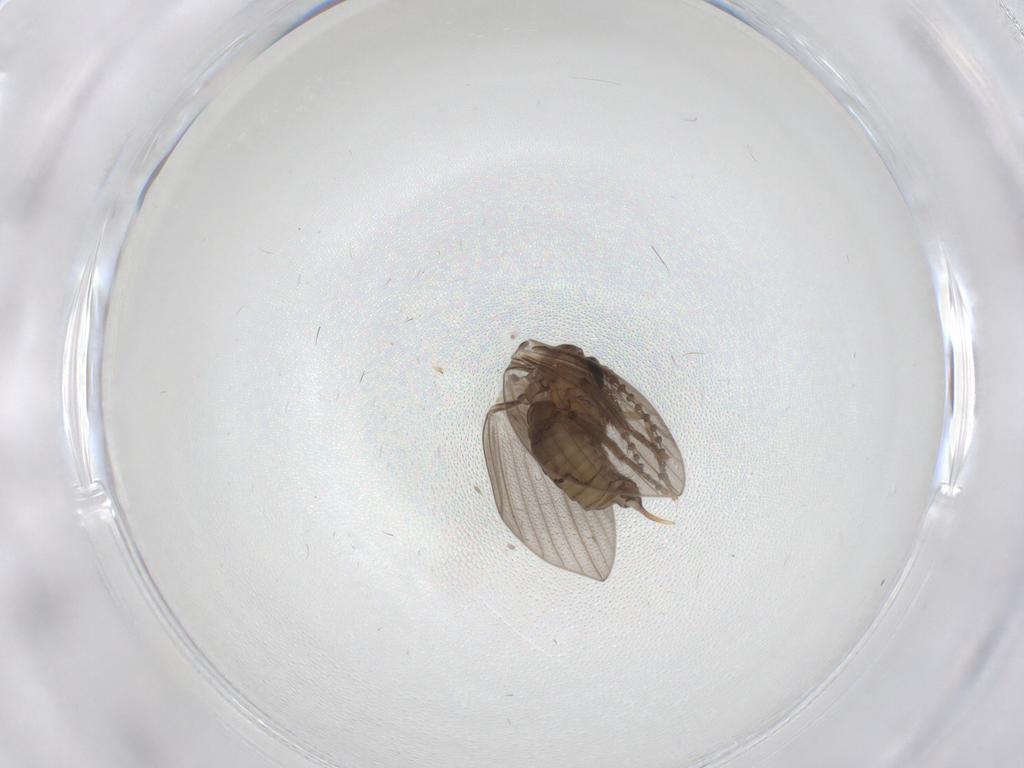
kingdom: Animalia
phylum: Arthropoda
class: Insecta
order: Diptera
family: Psychodidae
